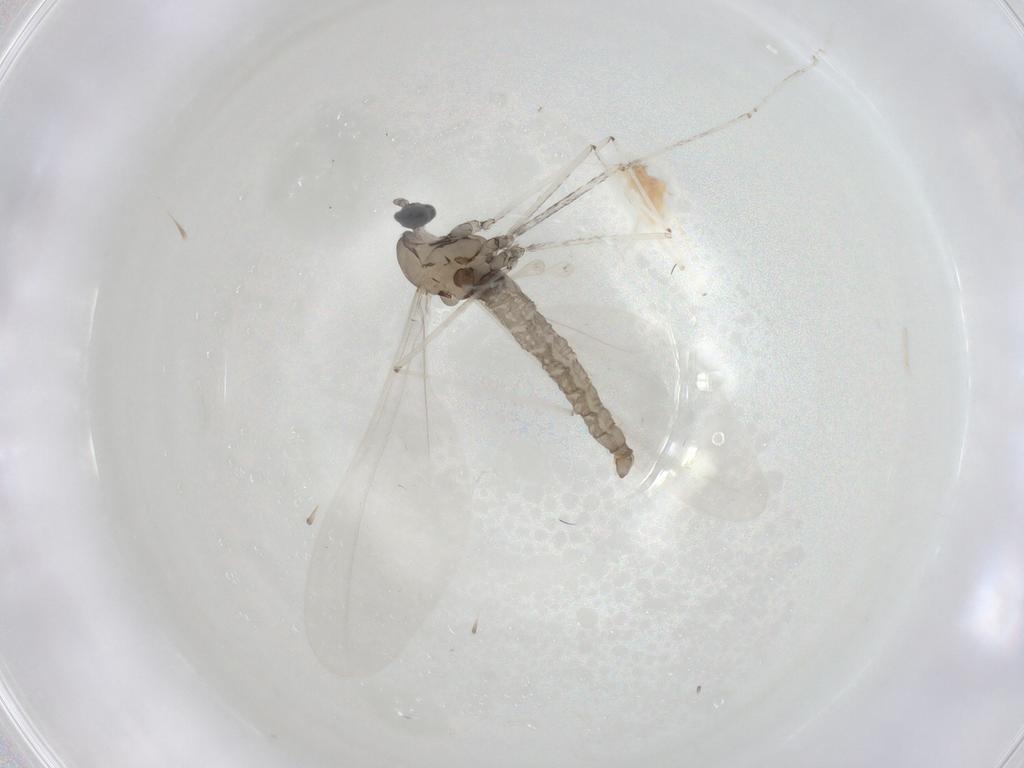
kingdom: Animalia
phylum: Arthropoda
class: Insecta
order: Diptera
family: Cecidomyiidae
